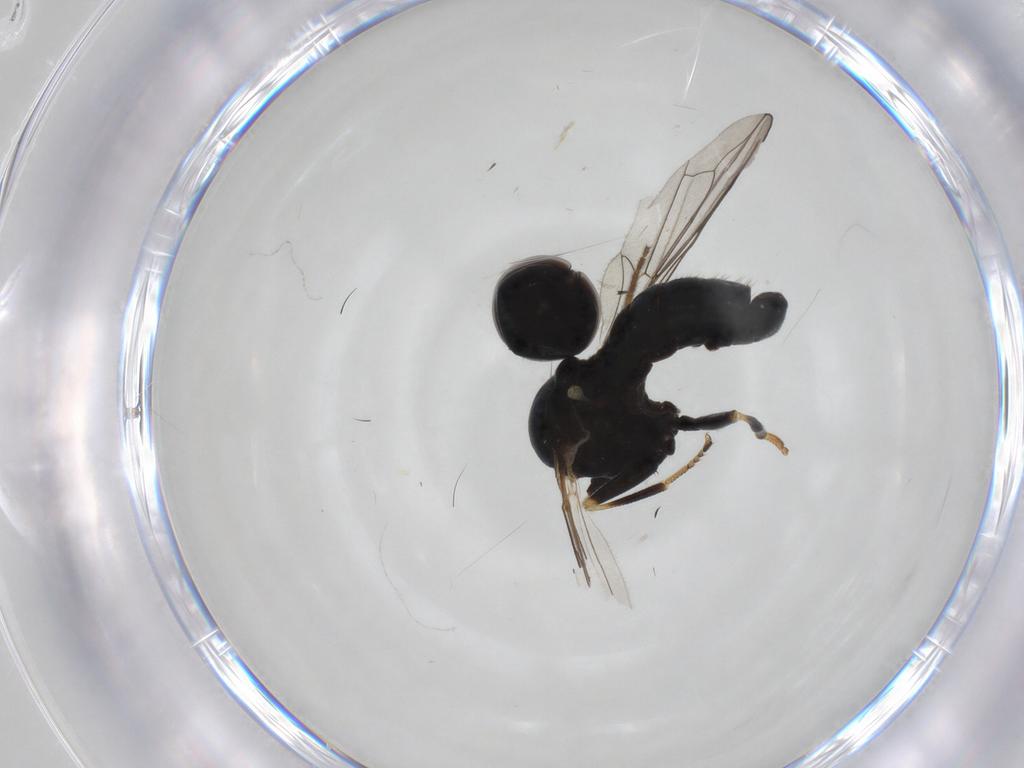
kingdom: Animalia
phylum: Arthropoda
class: Insecta
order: Diptera
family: Pipunculidae
